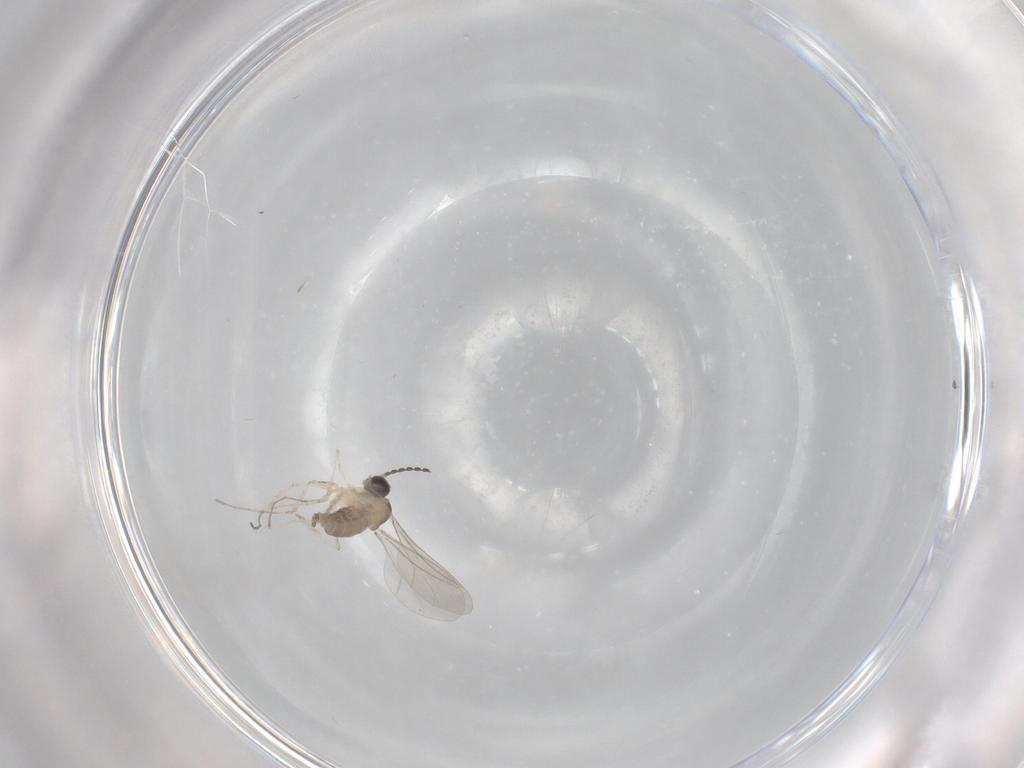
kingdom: Animalia
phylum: Arthropoda
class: Insecta
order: Diptera
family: Cecidomyiidae
